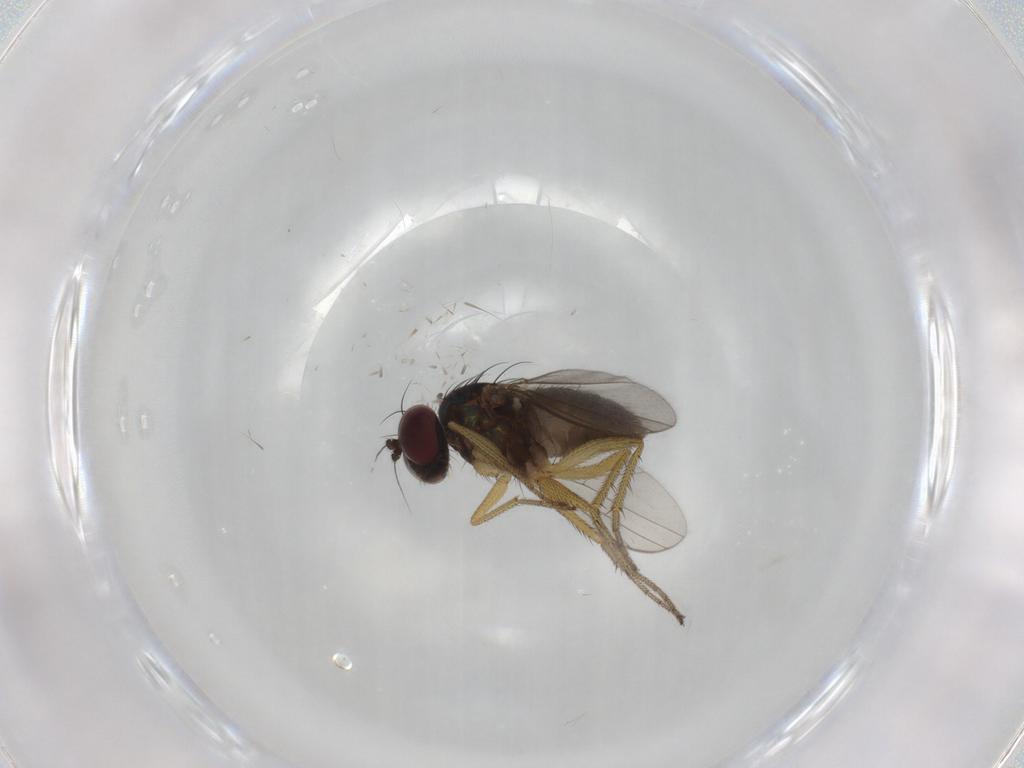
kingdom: Animalia
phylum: Arthropoda
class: Insecta
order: Diptera
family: Dolichopodidae
